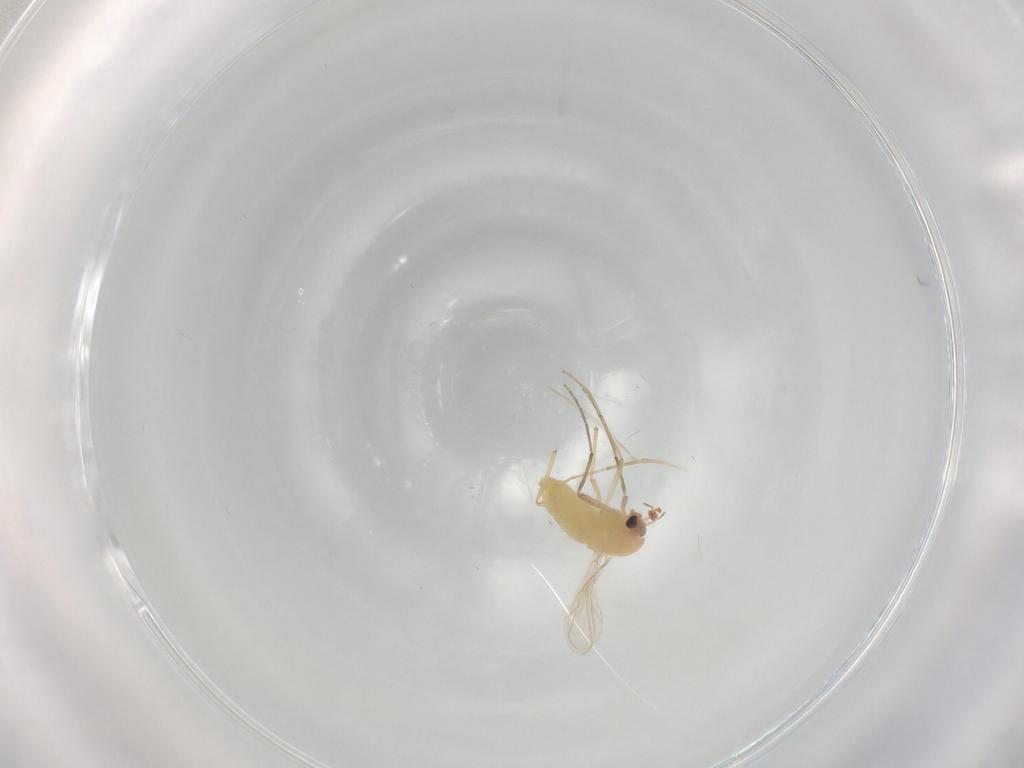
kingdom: Animalia
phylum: Arthropoda
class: Insecta
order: Diptera
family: Chironomidae
